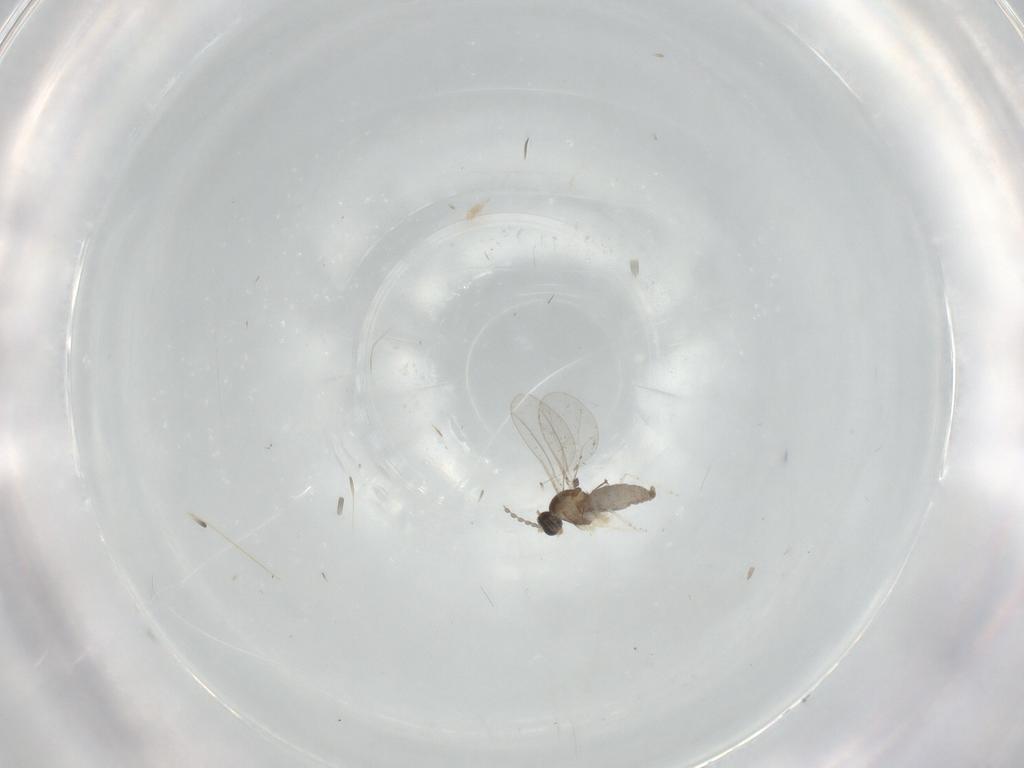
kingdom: Animalia
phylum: Arthropoda
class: Insecta
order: Diptera
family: Cecidomyiidae
